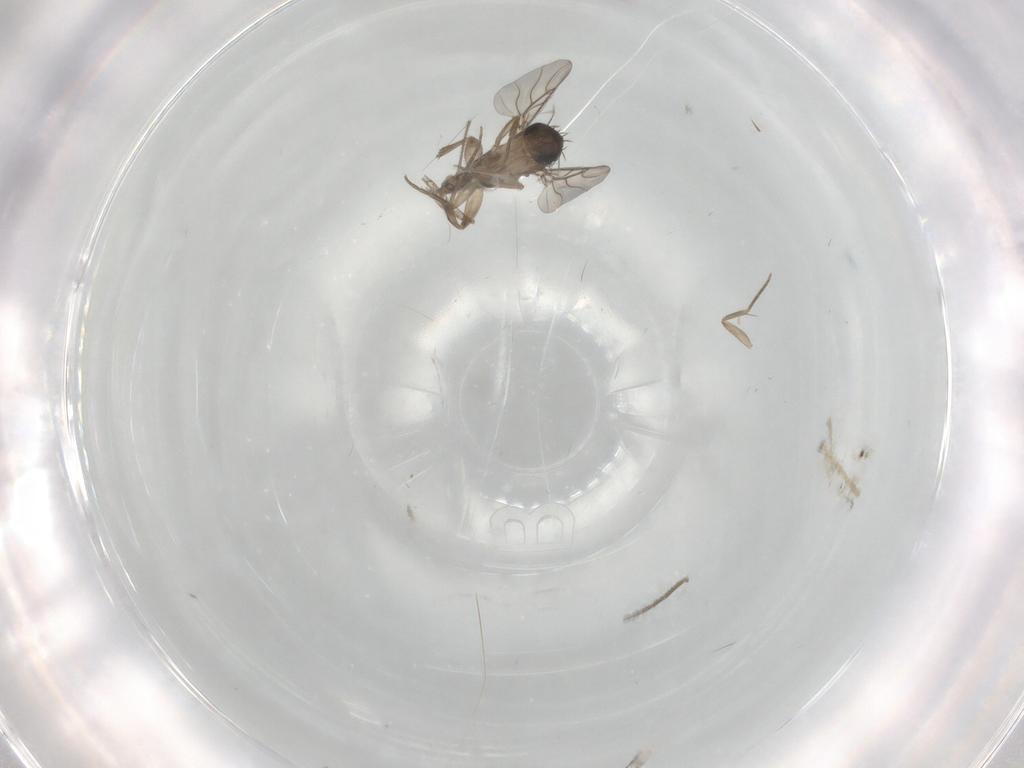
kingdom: Animalia
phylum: Arthropoda
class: Insecta
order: Diptera
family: Phoridae
